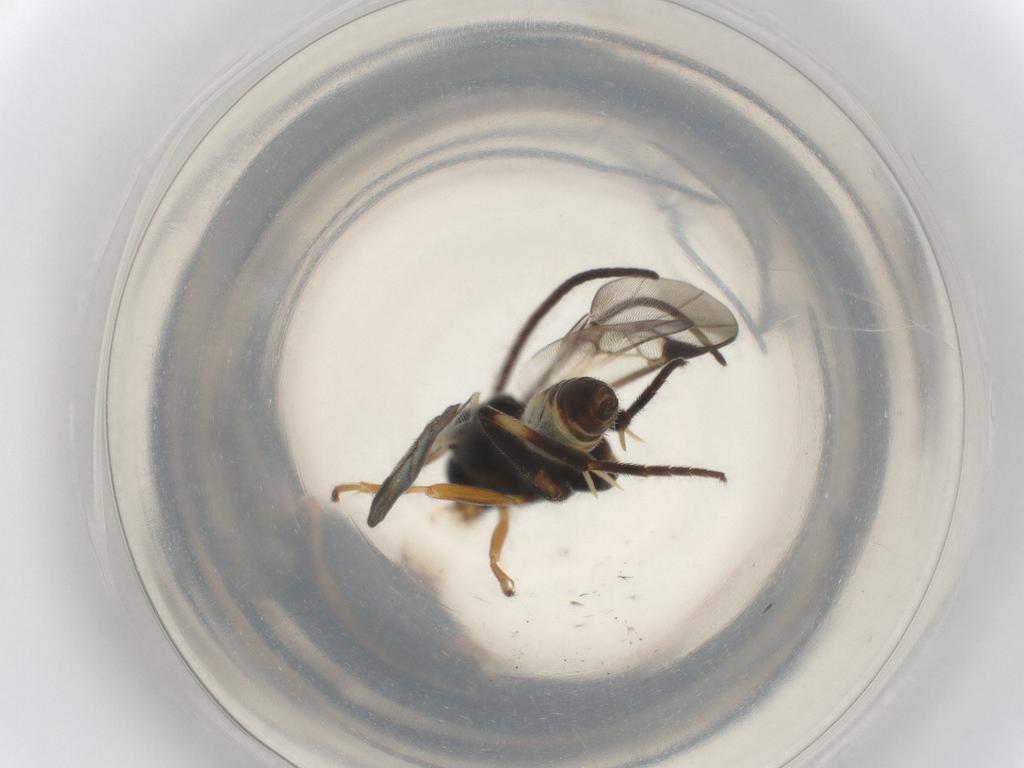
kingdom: Animalia
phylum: Arthropoda
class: Insecta
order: Hymenoptera
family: Braconidae
